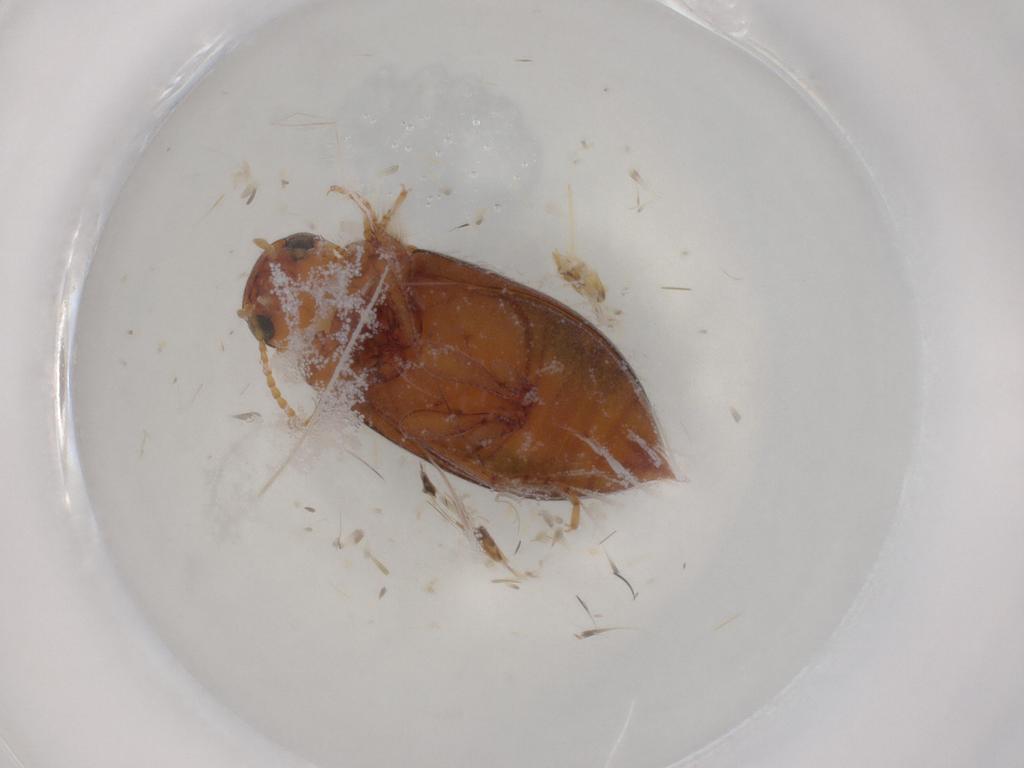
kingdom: Animalia
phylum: Arthropoda
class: Insecta
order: Coleoptera
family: Dytiscidae
